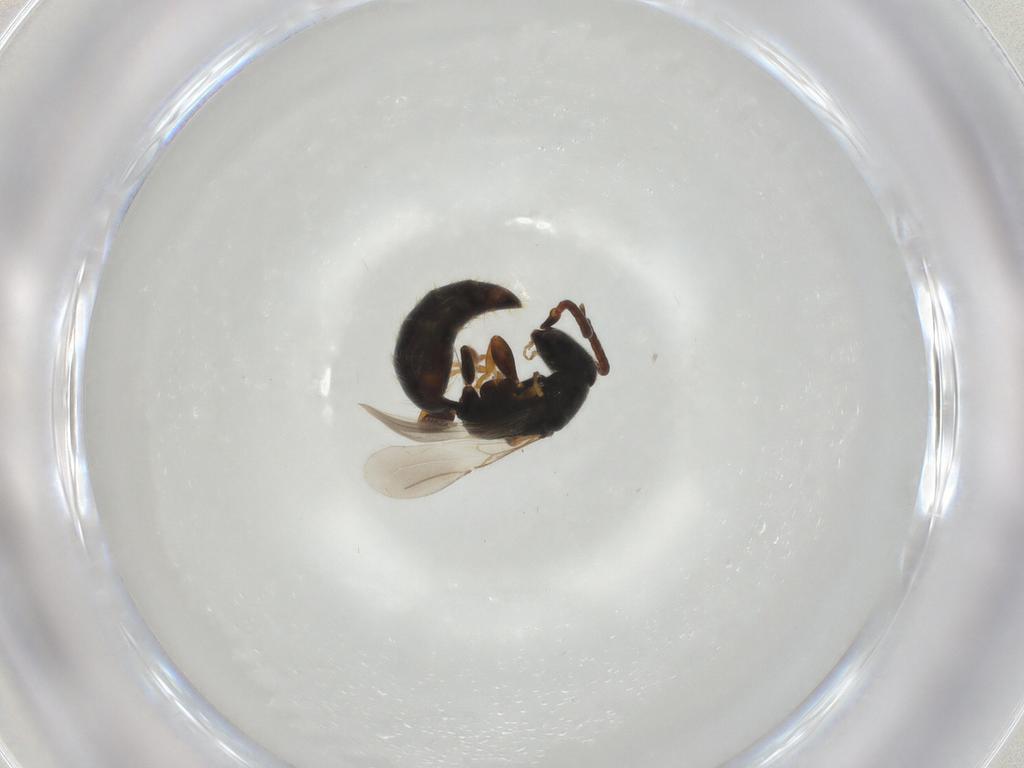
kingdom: Animalia
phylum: Arthropoda
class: Insecta
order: Hymenoptera
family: Bethylidae
